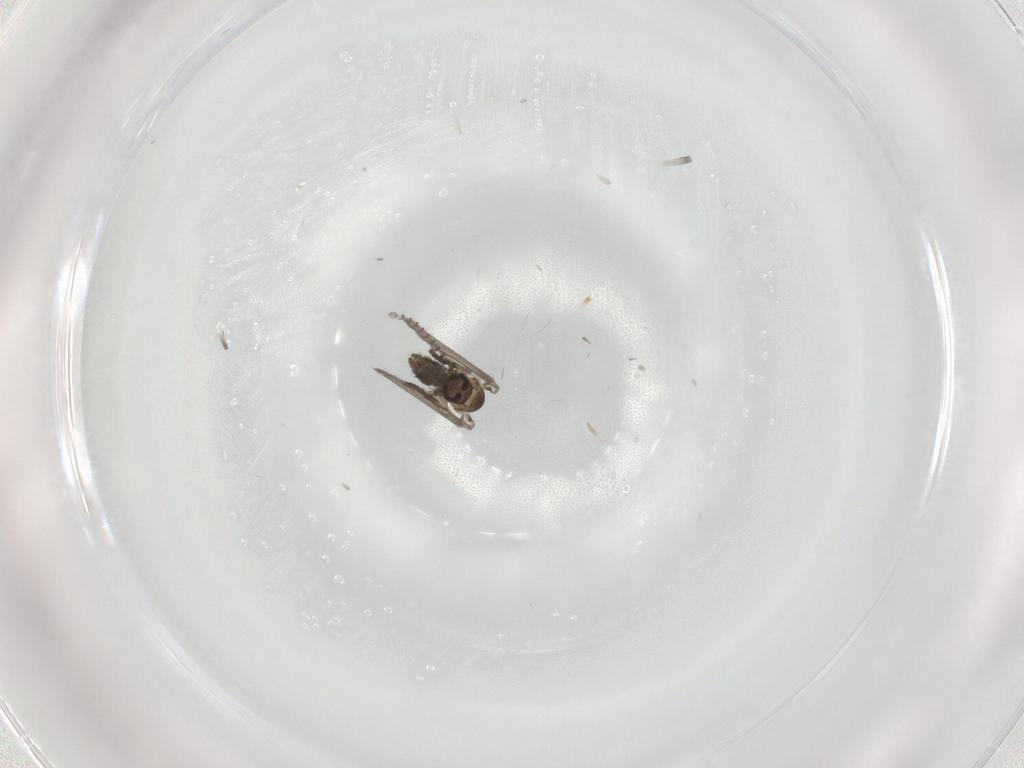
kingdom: Animalia
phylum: Arthropoda
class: Insecta
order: Diptera
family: Psychodidae
